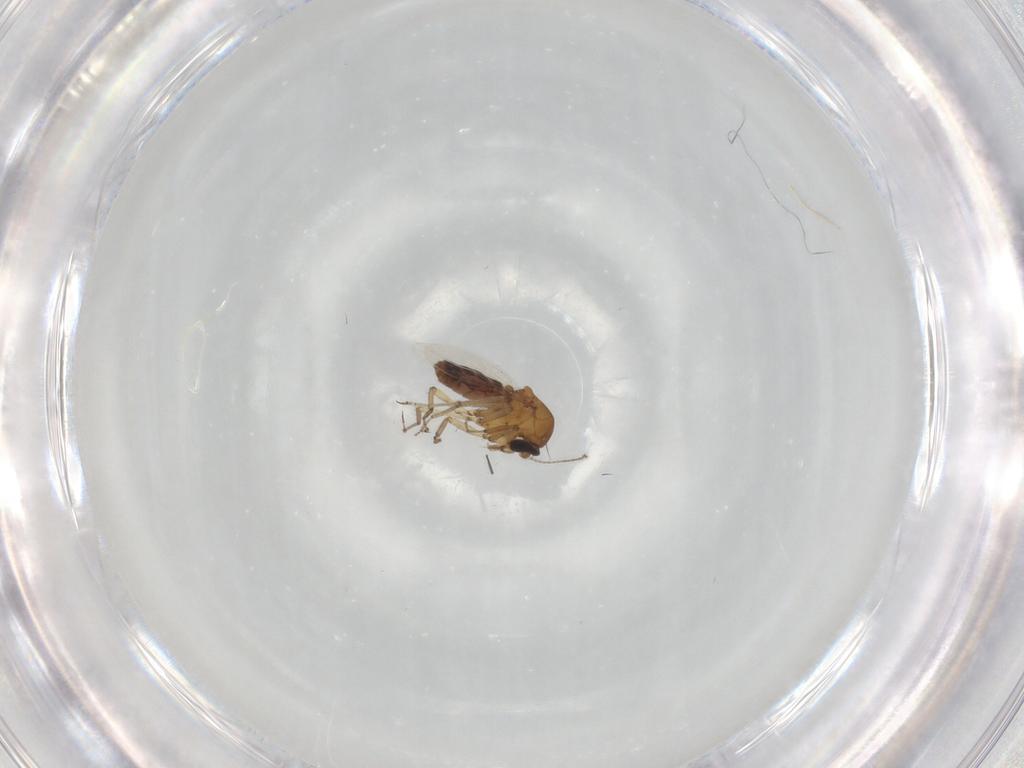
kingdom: Animalia
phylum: Arthropoda
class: Insecta
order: Diptera
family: Ceratopogonidae
